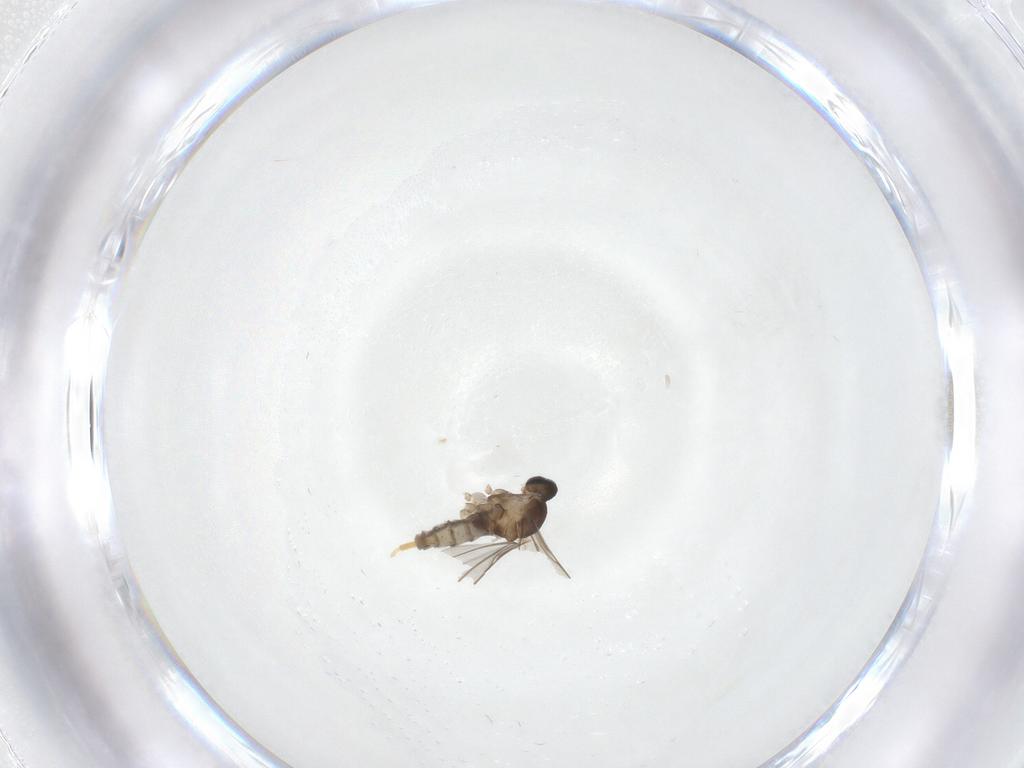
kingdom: Animalia
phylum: Arthropoda
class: Insecta
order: Diptera
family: Cecidomyiidae
